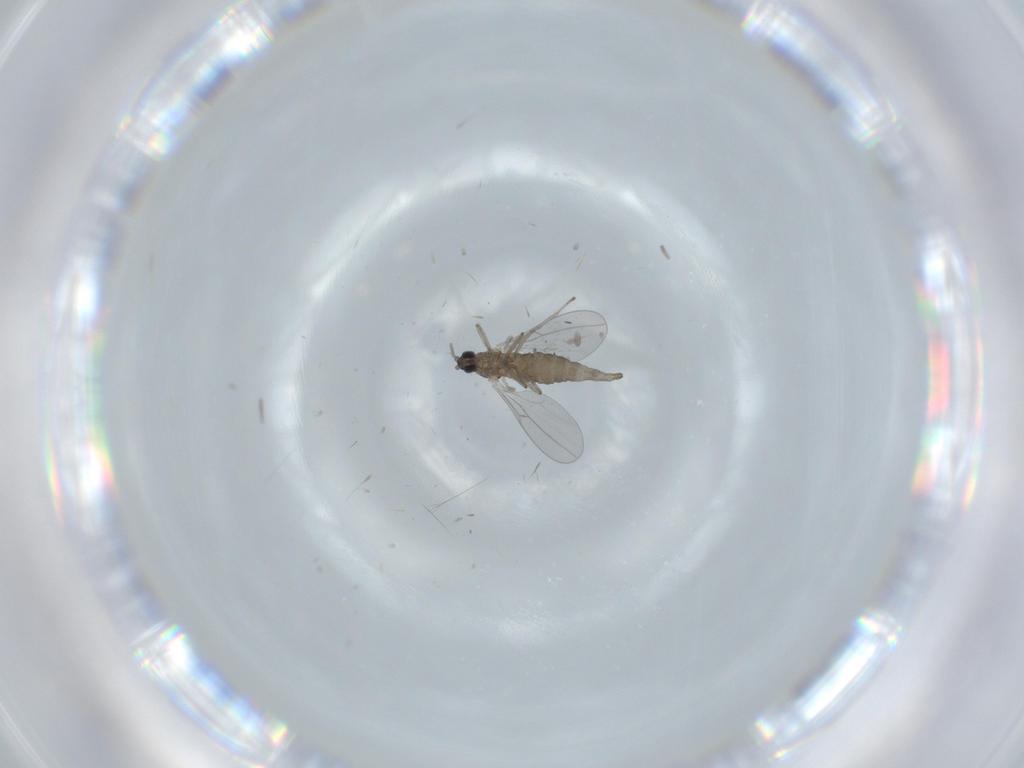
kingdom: Animalia
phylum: Arthropoda
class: Insecta
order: Diptera
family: Cecidomyiidae
